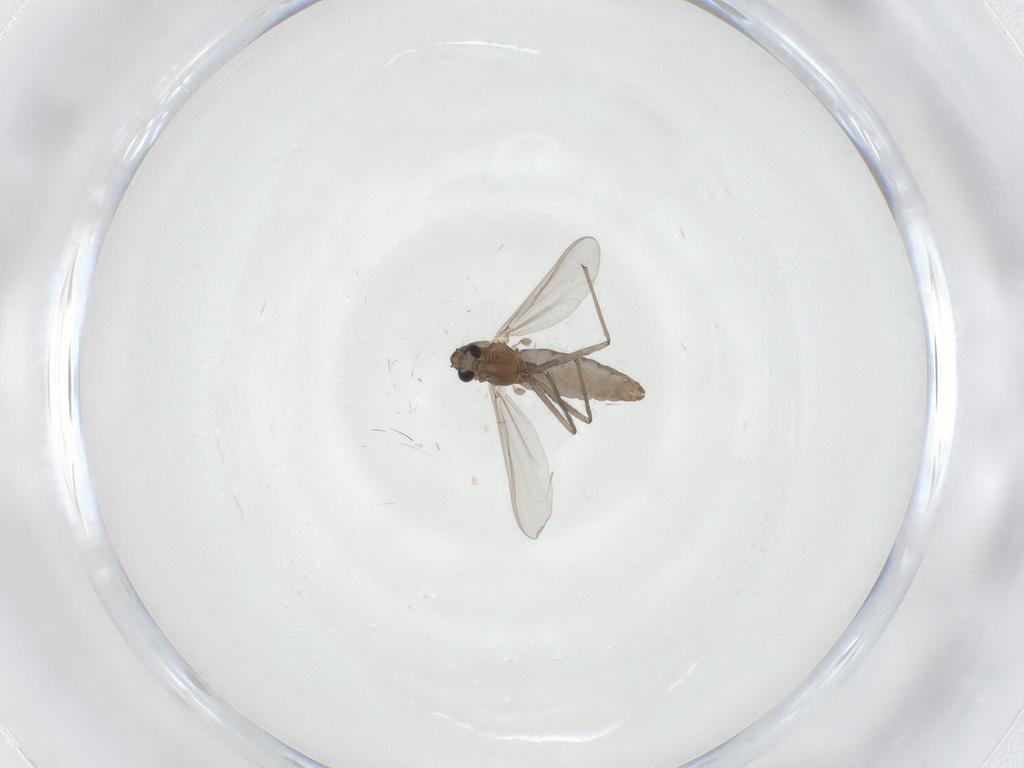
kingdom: Animalia
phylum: Arthropoda
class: Insecta
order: Diptera
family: Chironomidae
